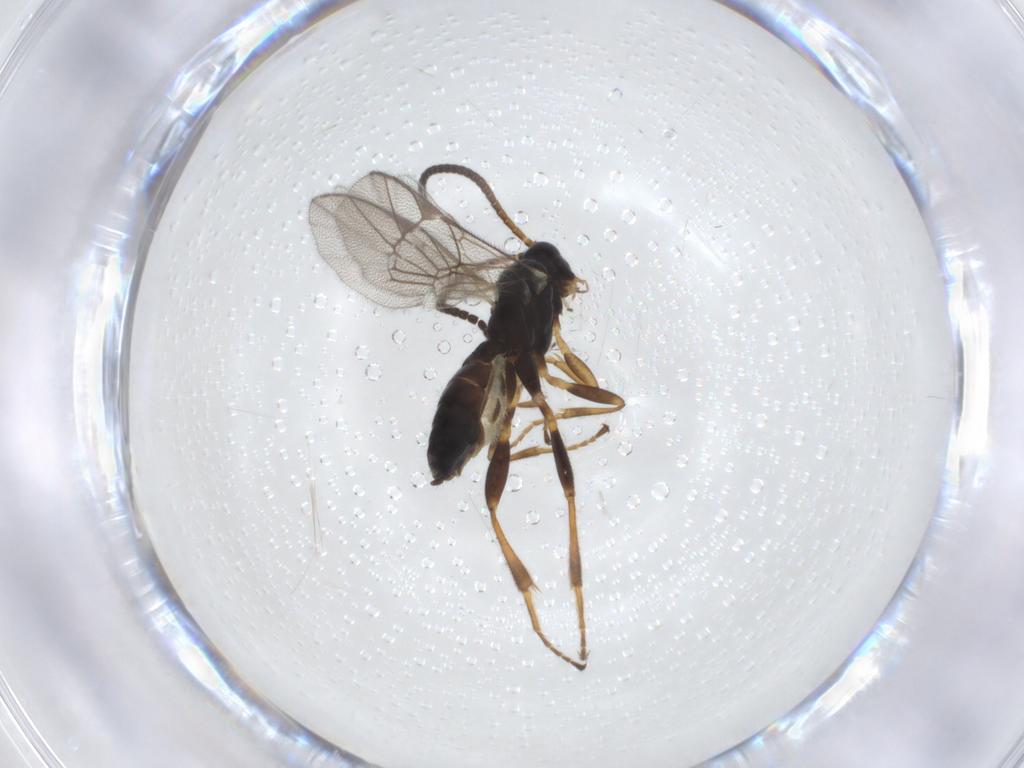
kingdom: Animalia
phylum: Arthropoda
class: Insecta
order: Hymenoptera
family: Ichneumonidae
